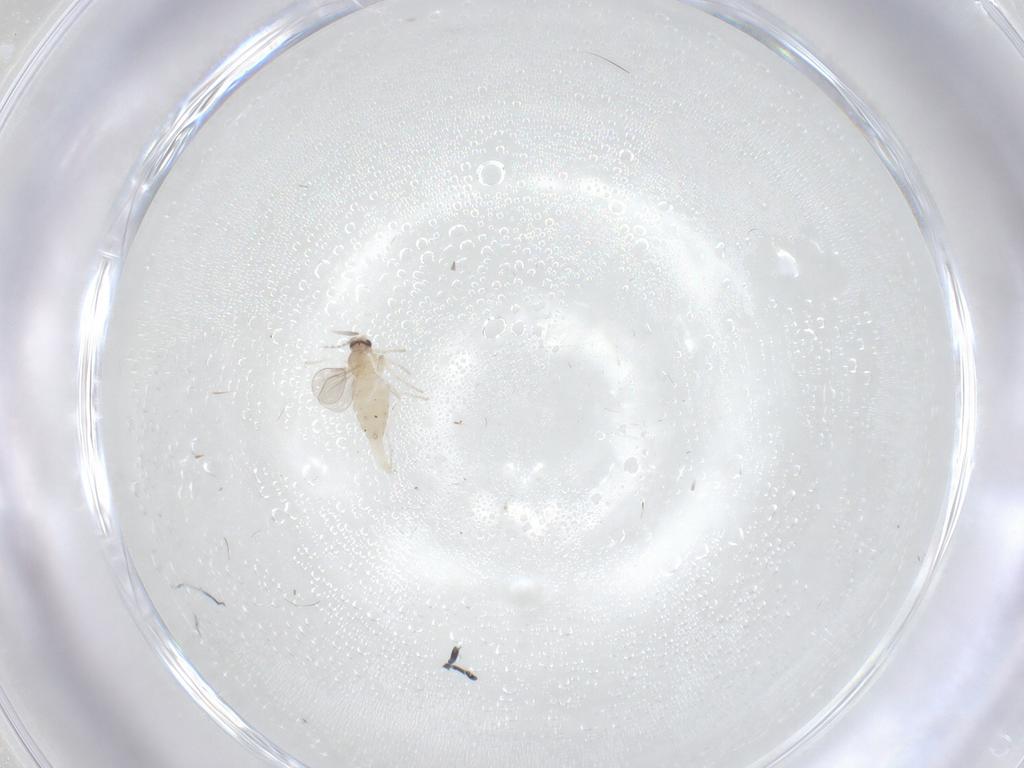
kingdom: Animalia
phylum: Arthropoda
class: Insecta
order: Diptera
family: Cecidomyiidae
